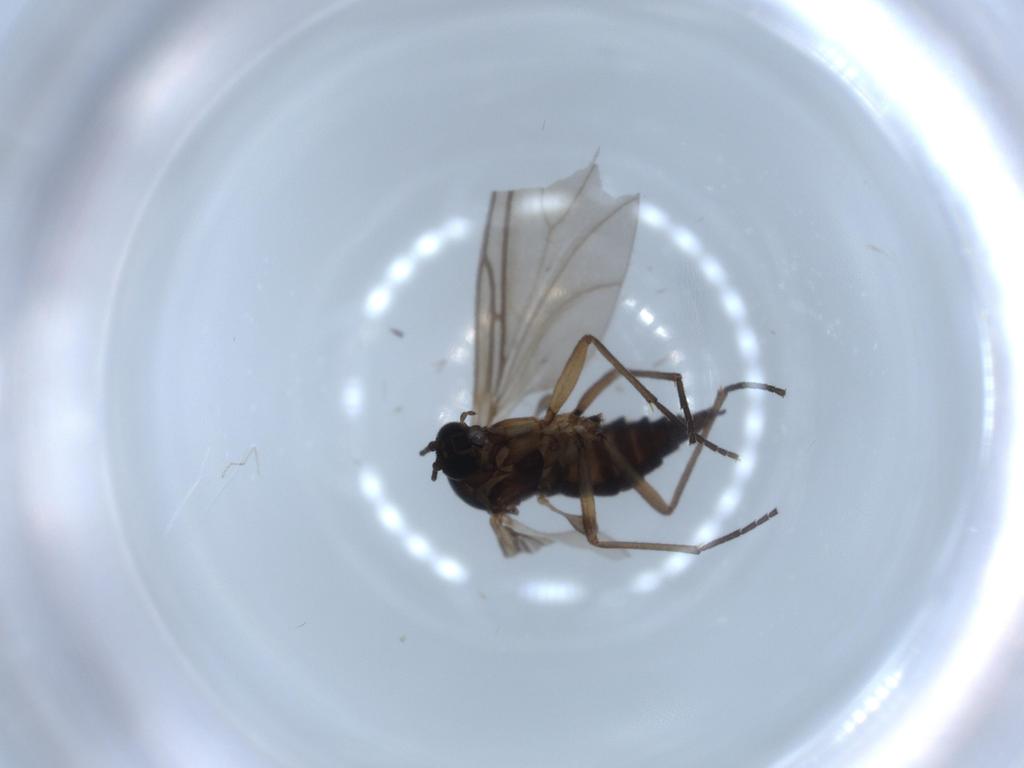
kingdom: Animalia
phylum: Arthropoda
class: Insecta
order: Diptera
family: Sciaridae
